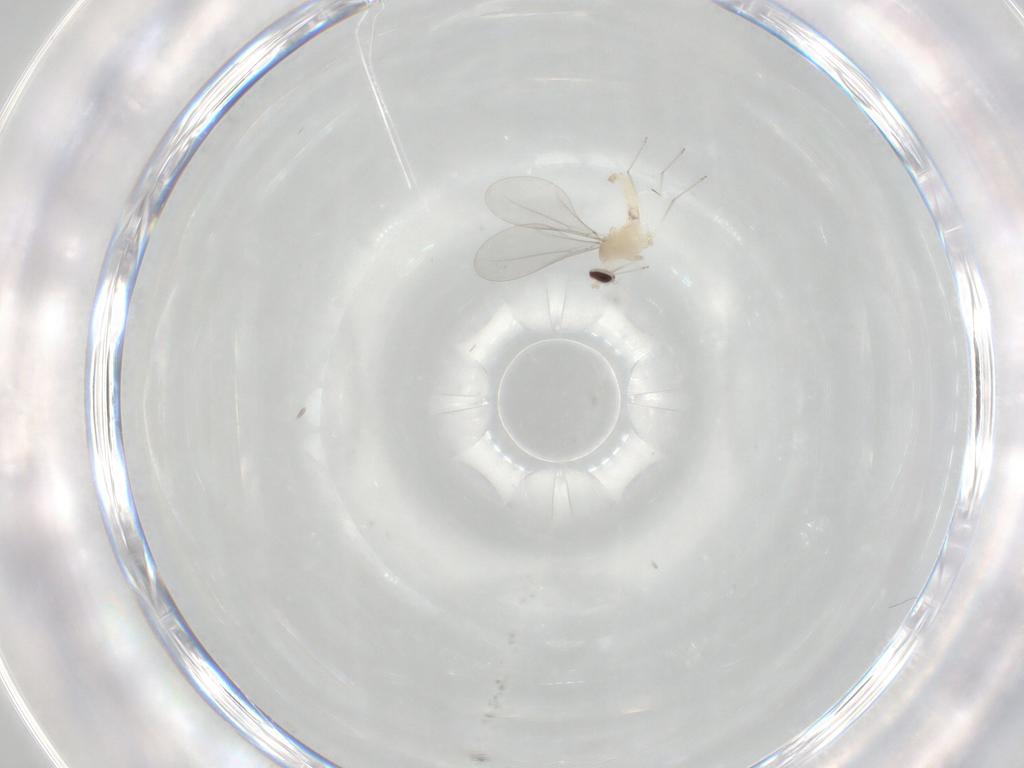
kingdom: Animalia
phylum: Arthropoda
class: Insecta
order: Diptera
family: Cecidomyiidae
